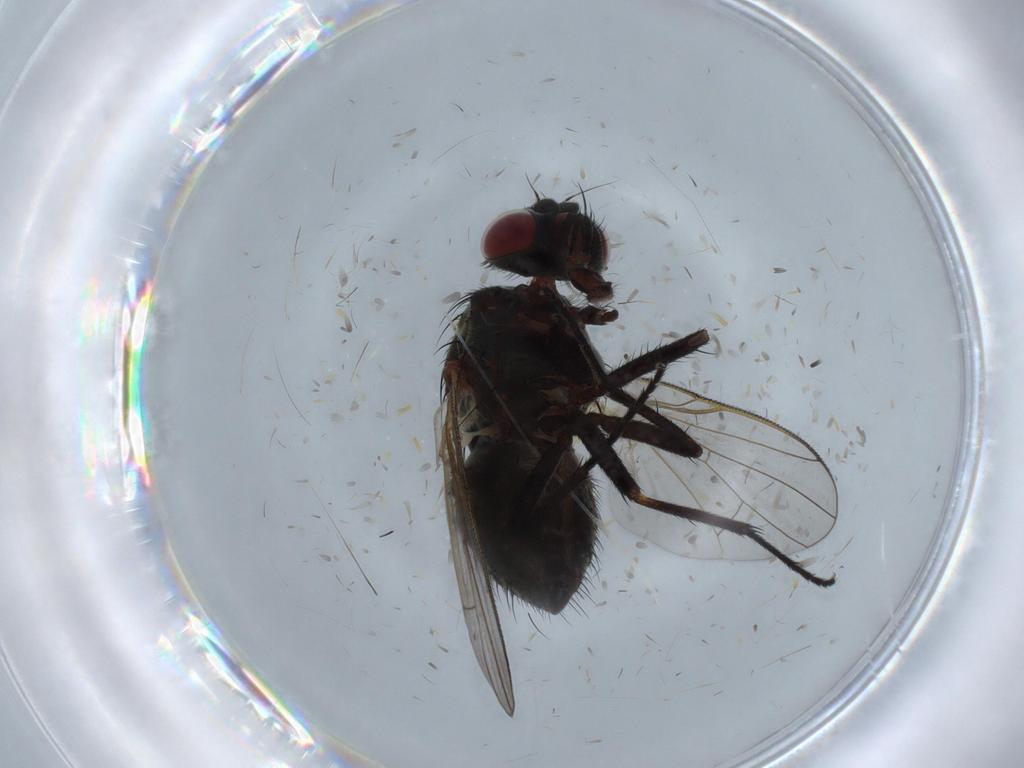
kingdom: Animalia
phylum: Arthropoda
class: Insecta
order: Diptera
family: Muscidae
